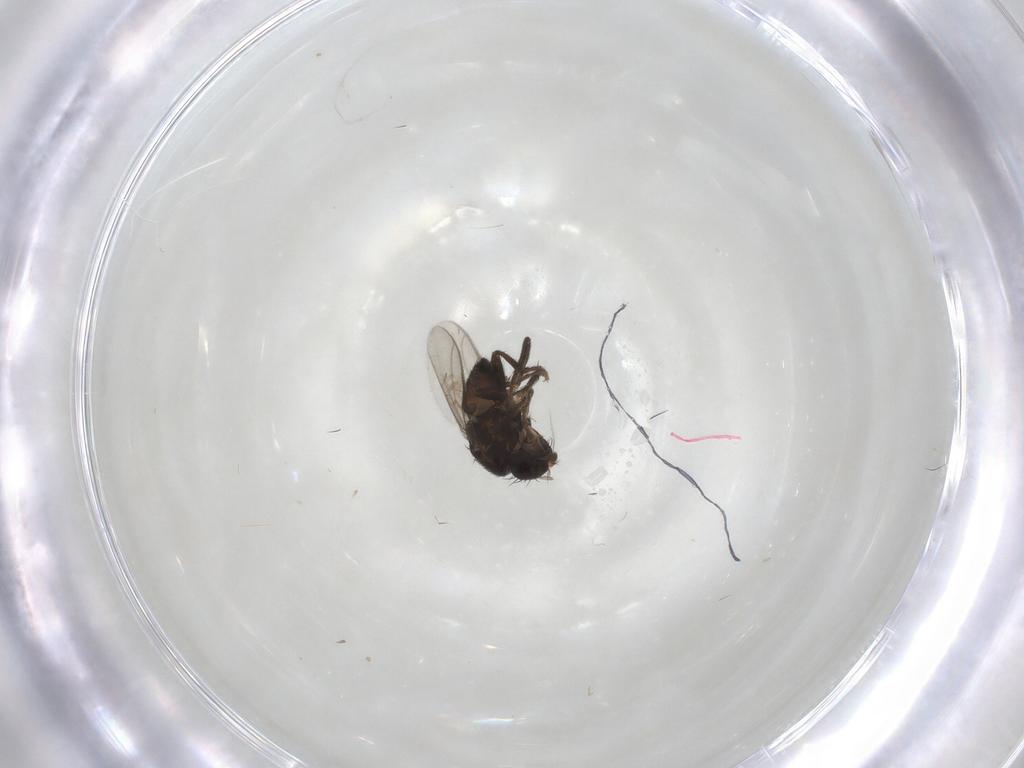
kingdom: Animalia
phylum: Arthropoda
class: Insecta
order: Diptera
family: Sphaeroceridae
